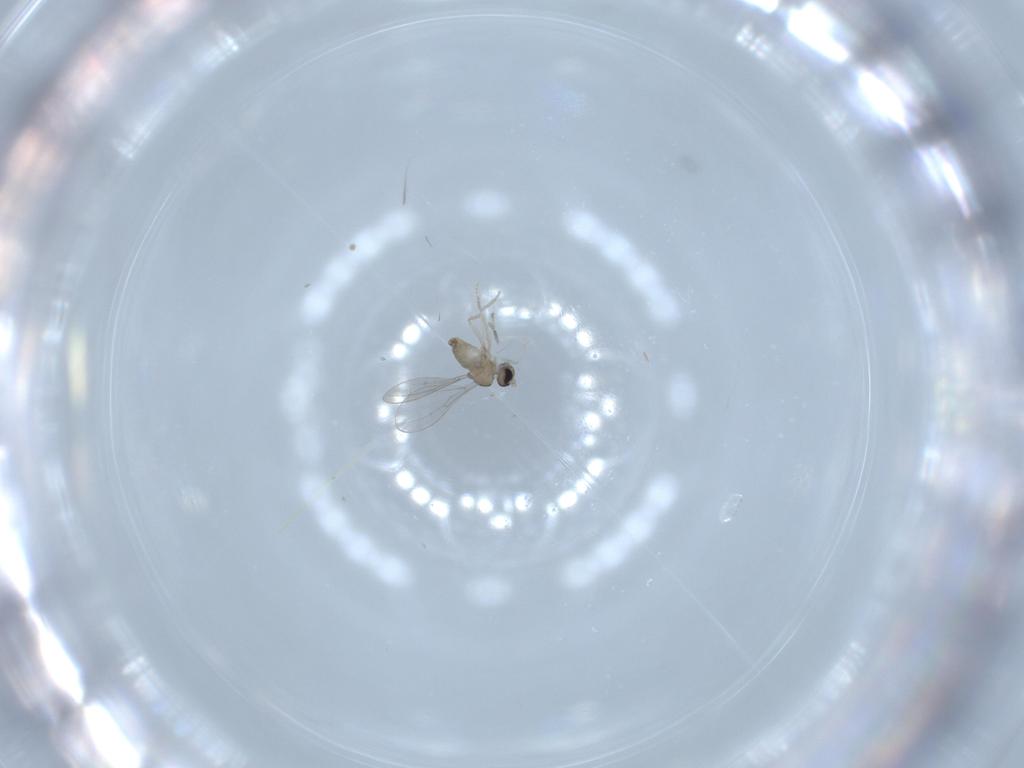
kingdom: Animalia
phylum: Arthropoda
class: Insecta
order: Diptera
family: Cecidomyiidae
